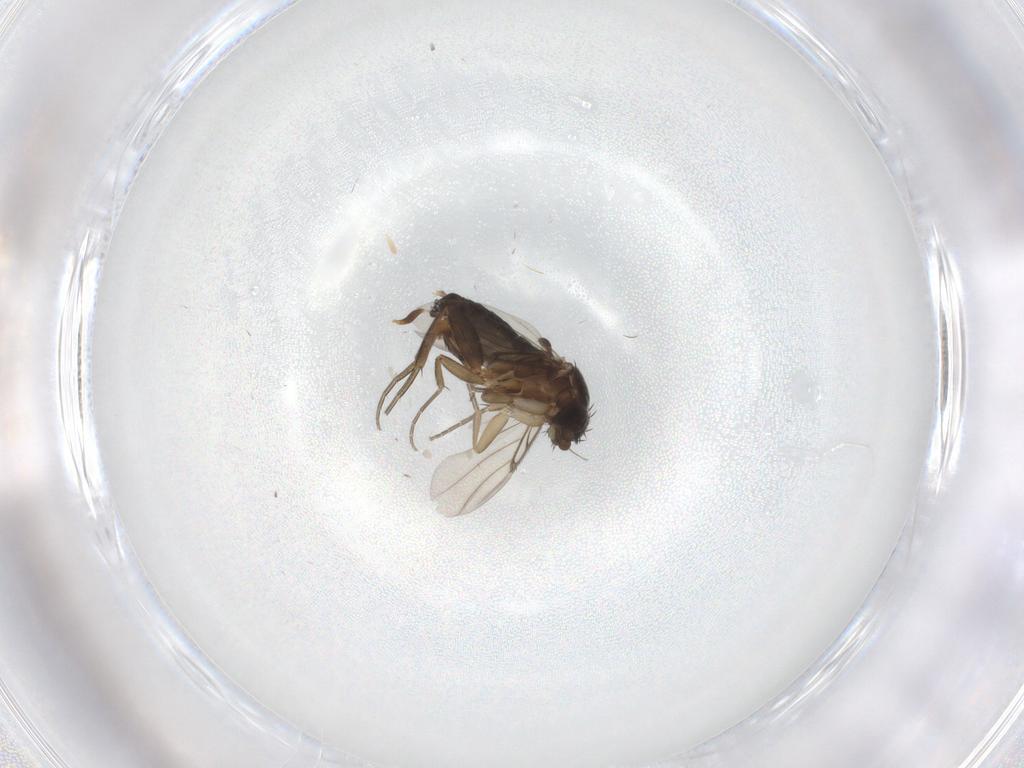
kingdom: Animalia
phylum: Arthropoda
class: Insecta
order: Diptera
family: Phoridae
